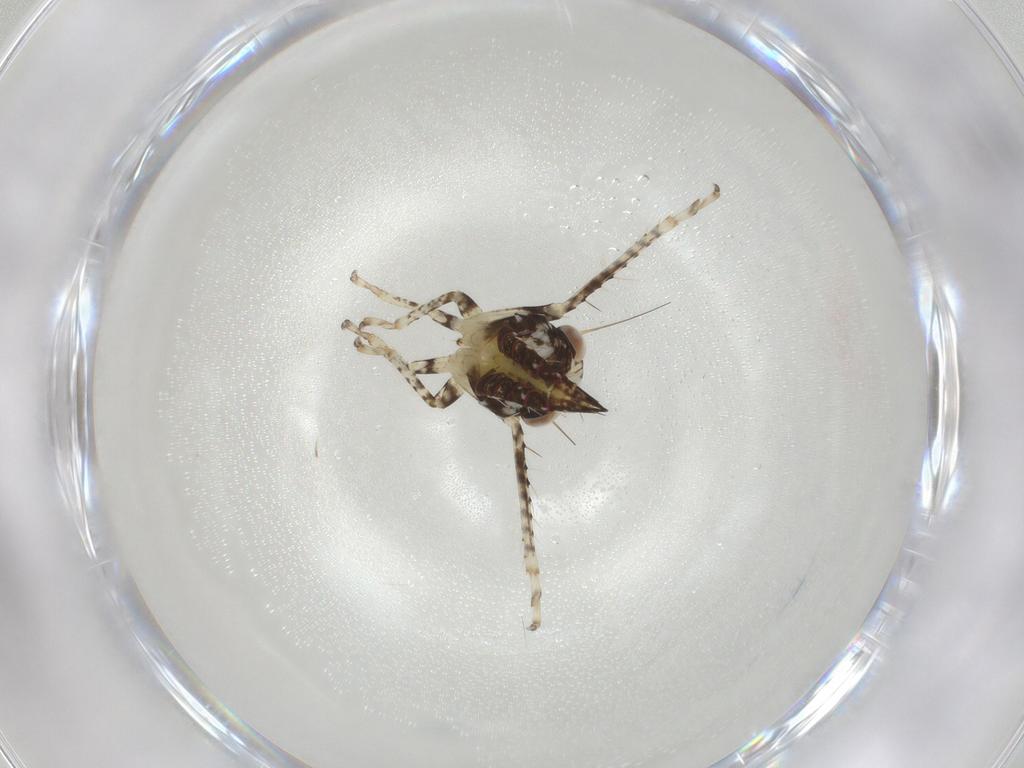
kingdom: Animalia
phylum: Arthropoda
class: Insecta
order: Hemiptera
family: Cicadellidae
